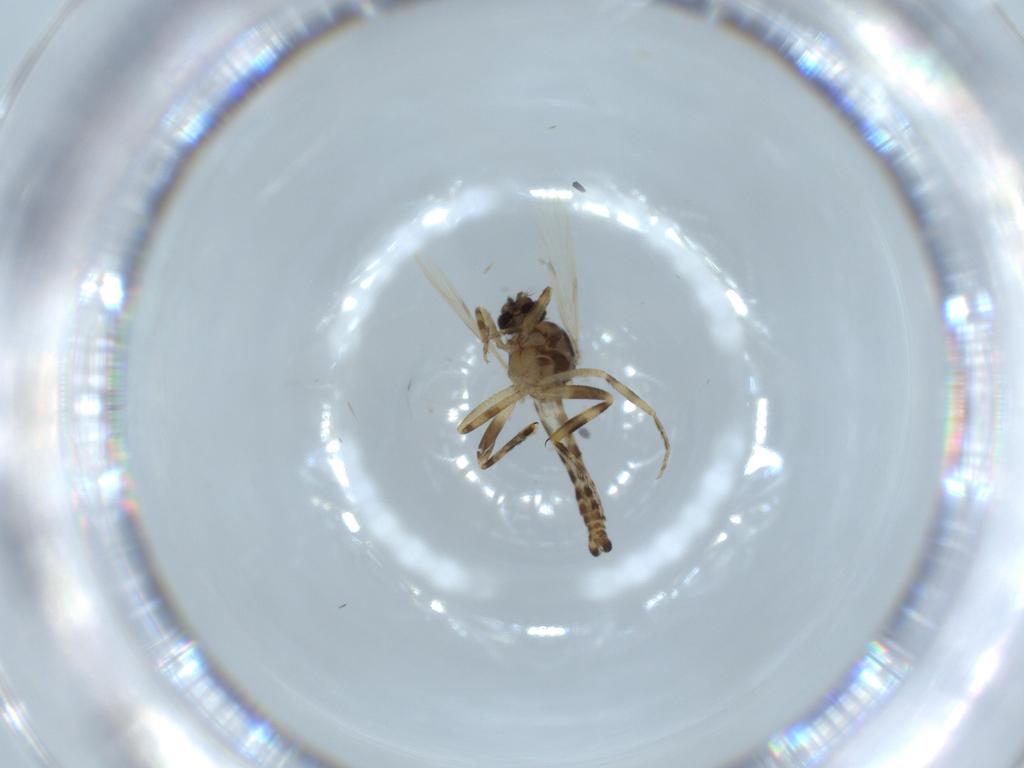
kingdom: Animalia
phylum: Arthropoda
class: Insecta
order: Diptera
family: Ceratopogonidae
